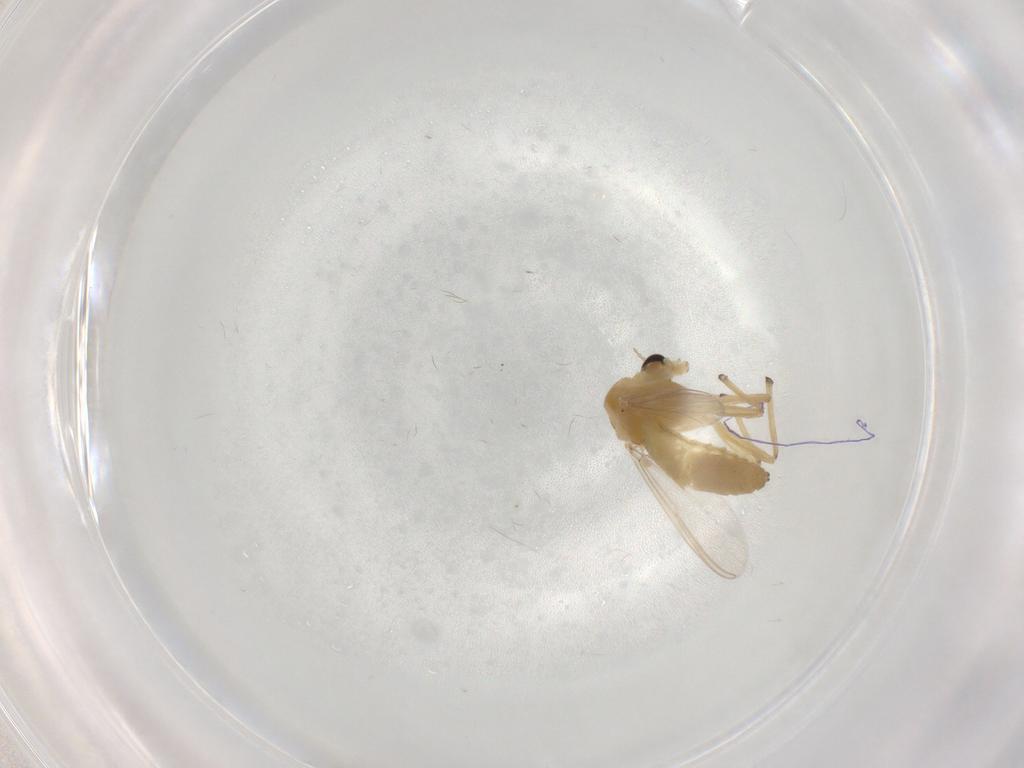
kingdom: Animalia
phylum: Arthropoda
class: Insecta
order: Diptera
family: Chironomidae
